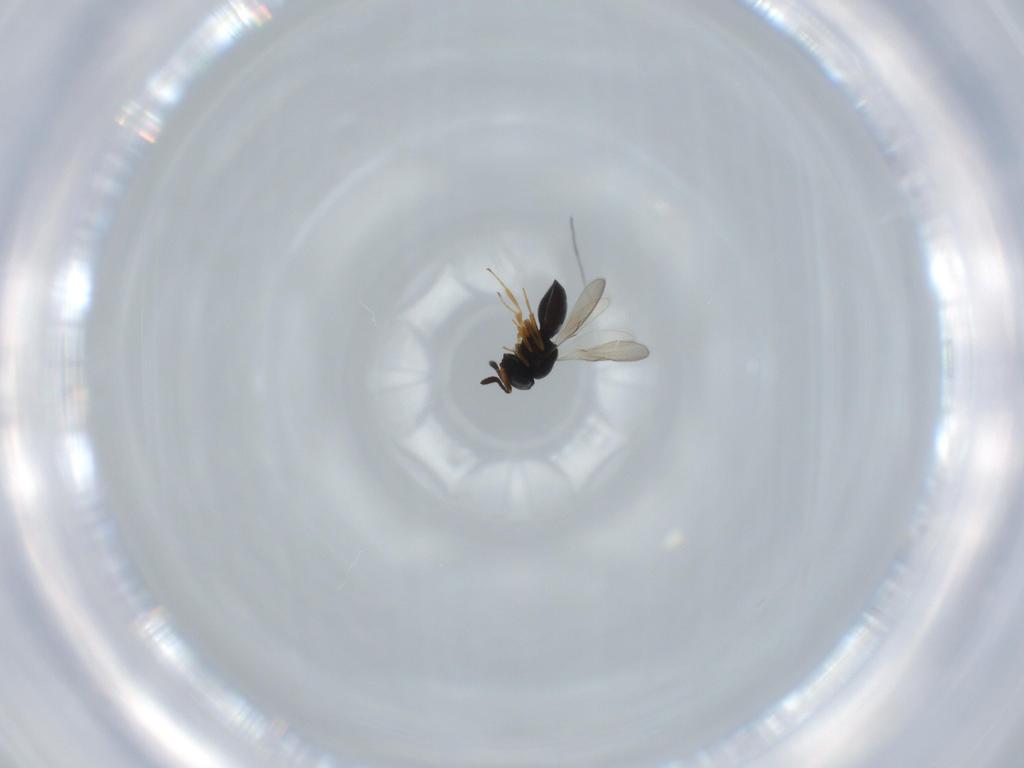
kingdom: Animalia
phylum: Arthropoda
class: Insecta
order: Hymenoptera
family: Scelionidae
